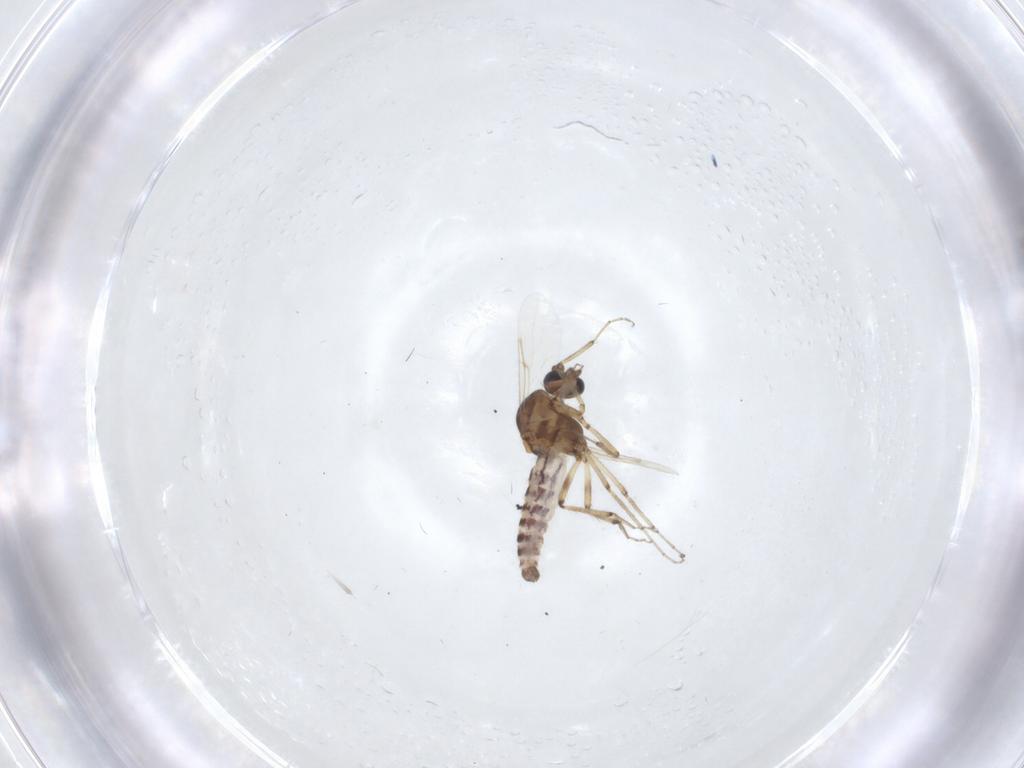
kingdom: Animalia
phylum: Arthropoda
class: Insecta
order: Diptera
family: Ceratopogonidae
